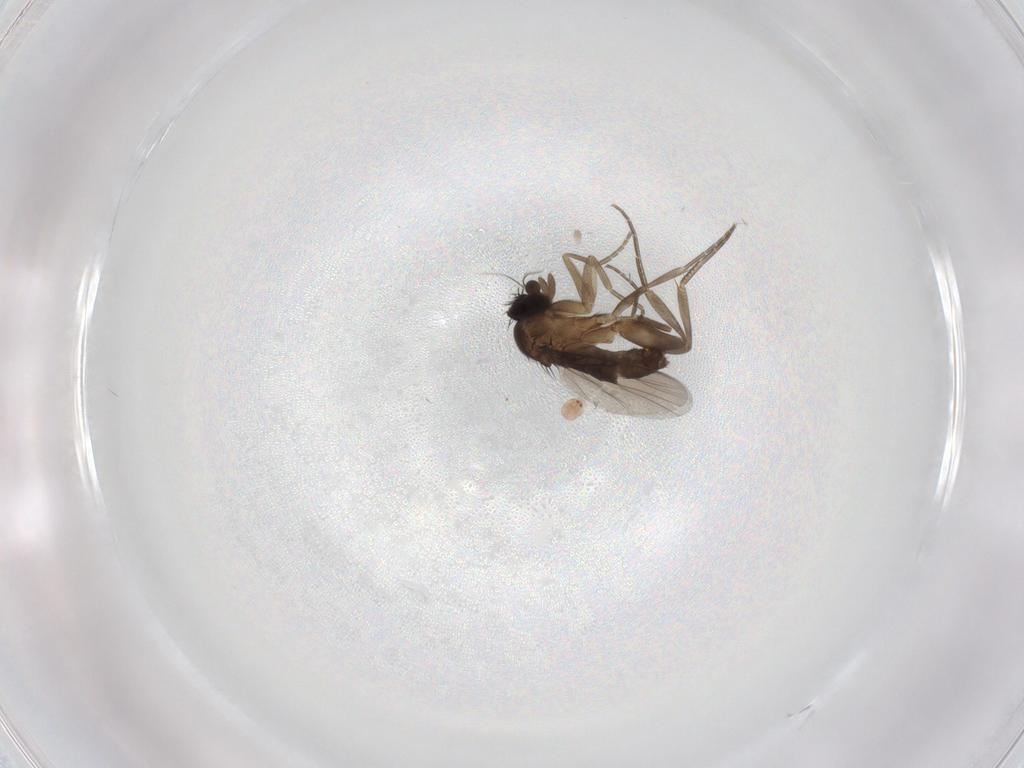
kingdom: Animalia
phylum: Arthropoda
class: Insecta
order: Diptera
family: Phoridae
